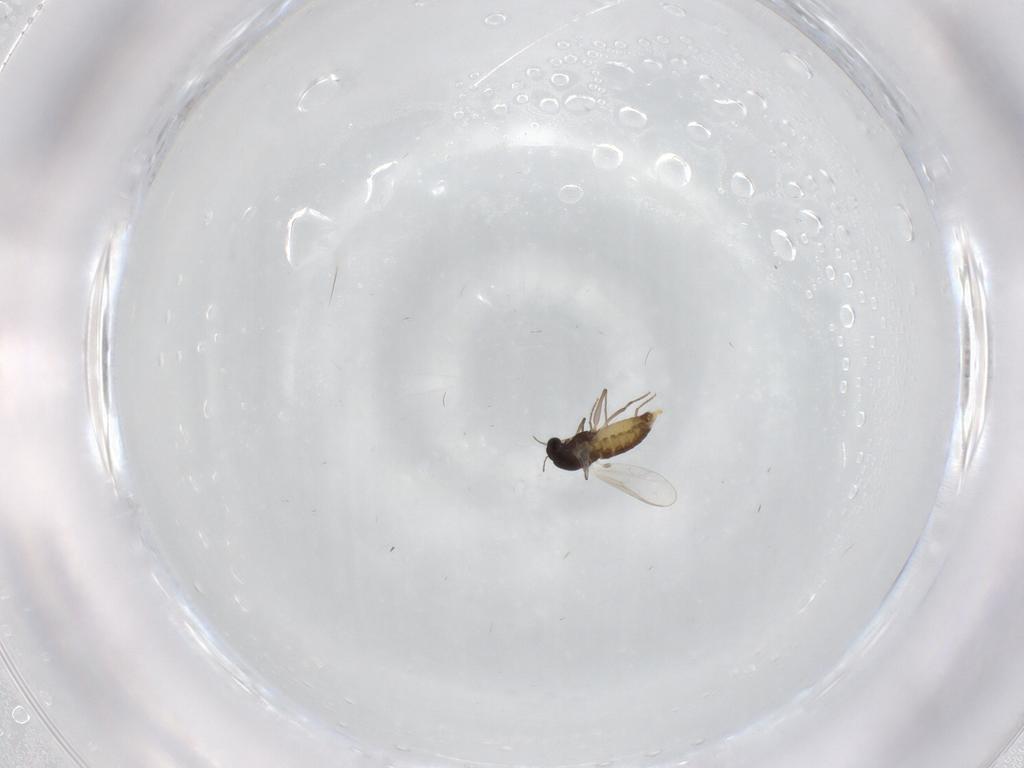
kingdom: Animalia
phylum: Arthropoda
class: Insecta
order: Diptera
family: Chironomidae
